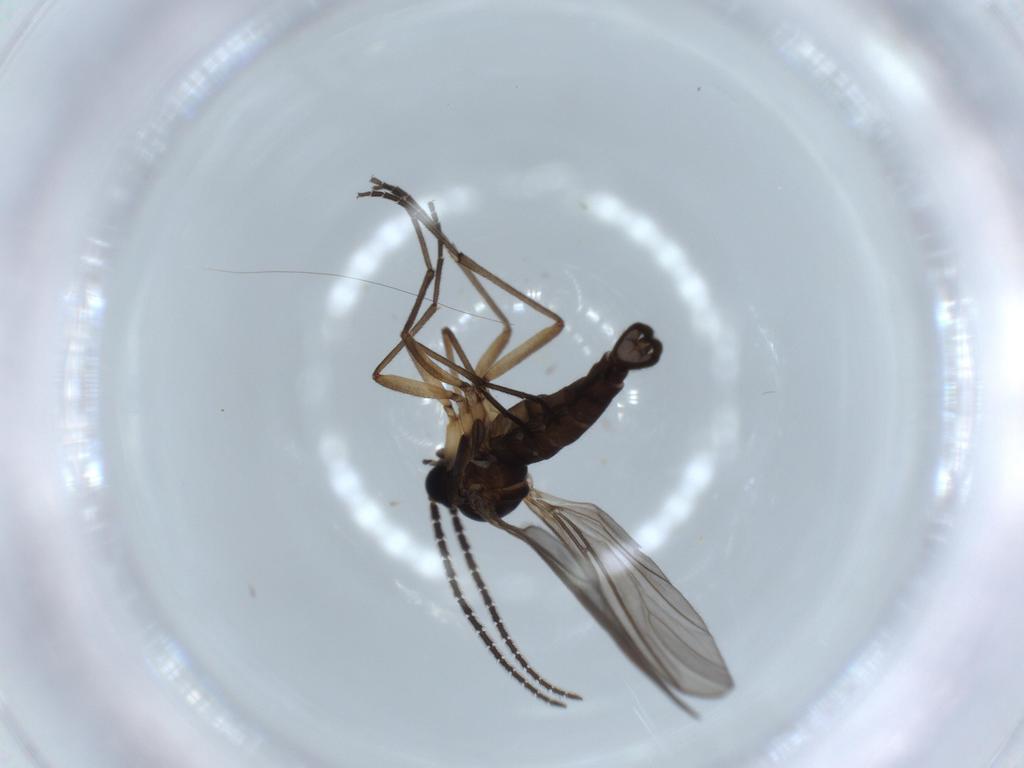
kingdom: Animalia
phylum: Arthropoda
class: Insecta
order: Diptera
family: Sciaridae
